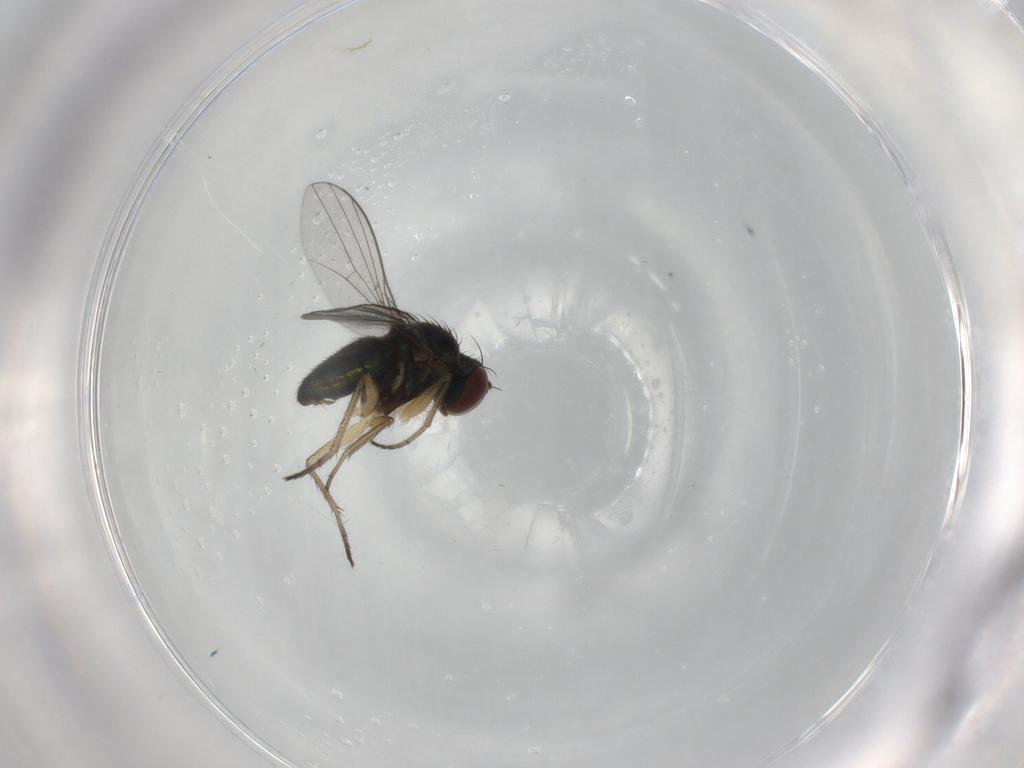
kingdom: Animalia
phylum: Arthropoda
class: Insecta
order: Diptera
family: Dolichopodidae
